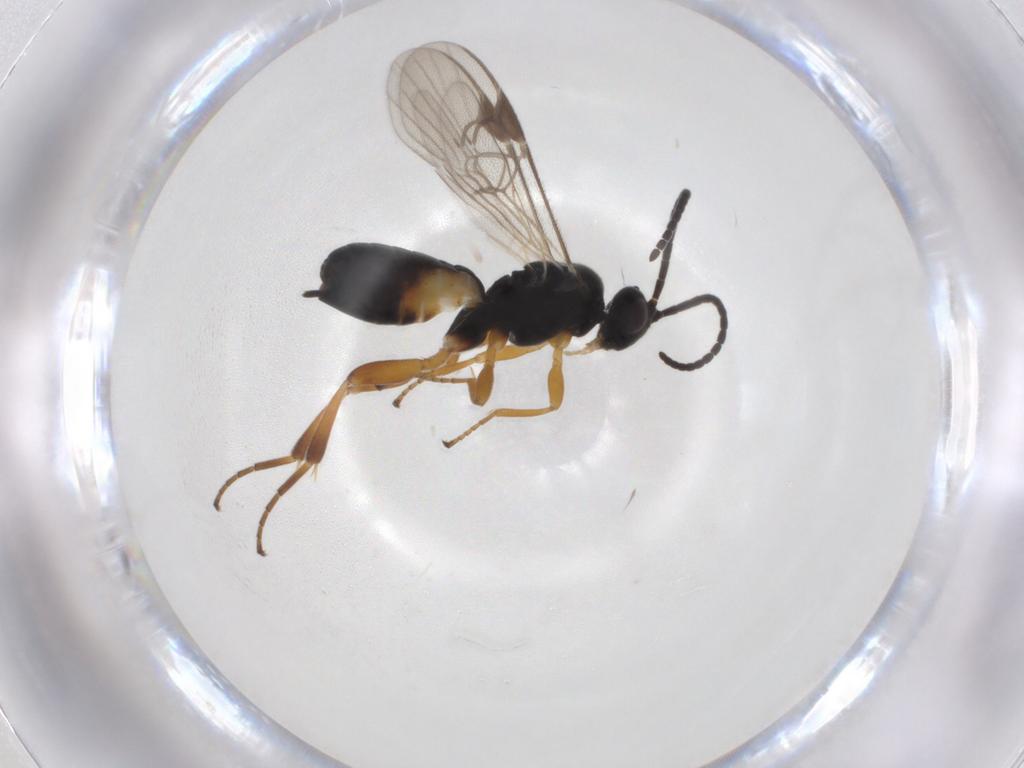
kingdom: Animalia
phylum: Arthropoda
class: Insecta
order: Hymenoptera
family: Braconidae
